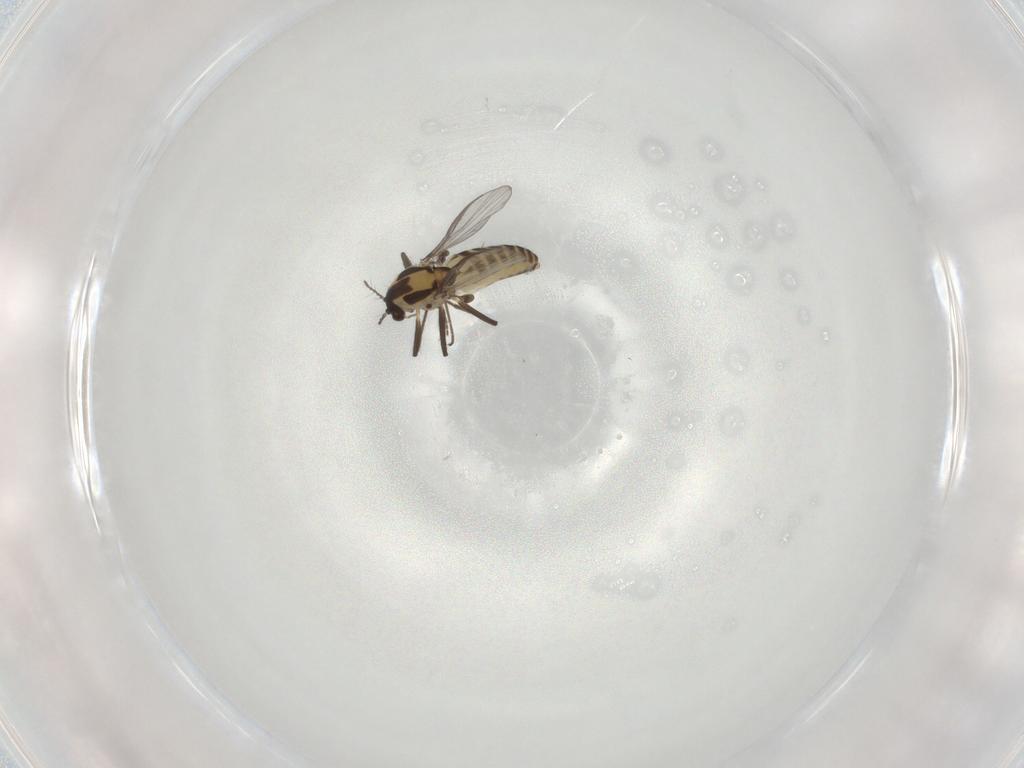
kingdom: Animalia
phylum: Arthropoda
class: Insecta
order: Diptera
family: Chironomidae
